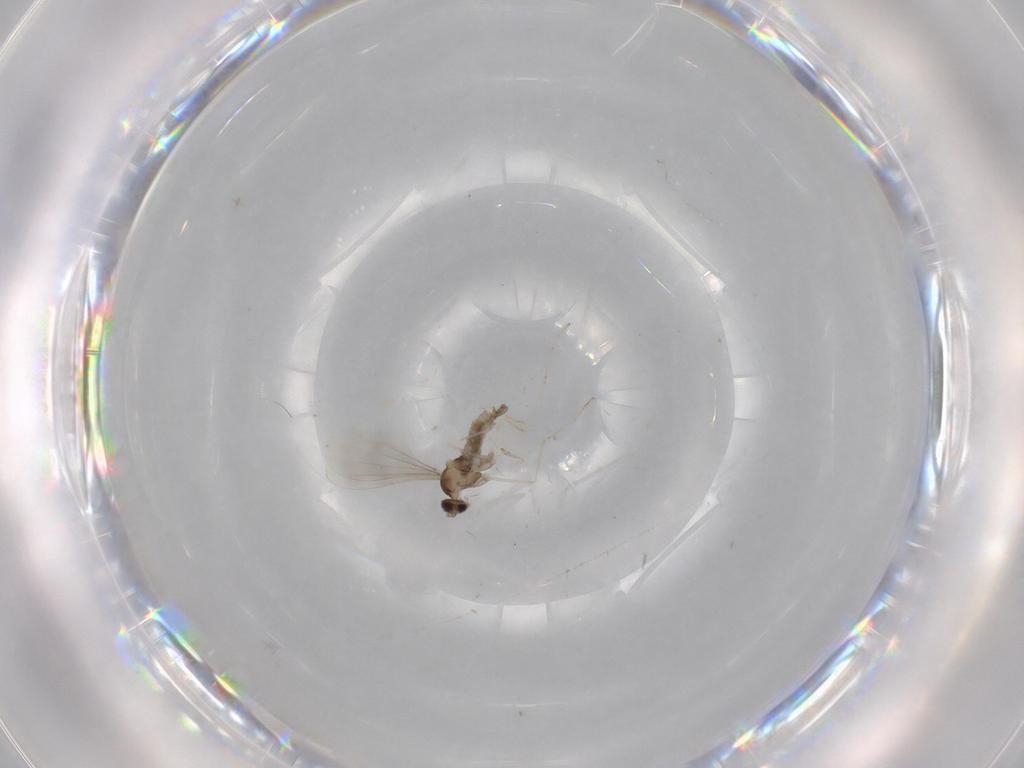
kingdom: Animalia
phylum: Arthropoda
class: Insecta
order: Diptera
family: Cecidomyiidae
